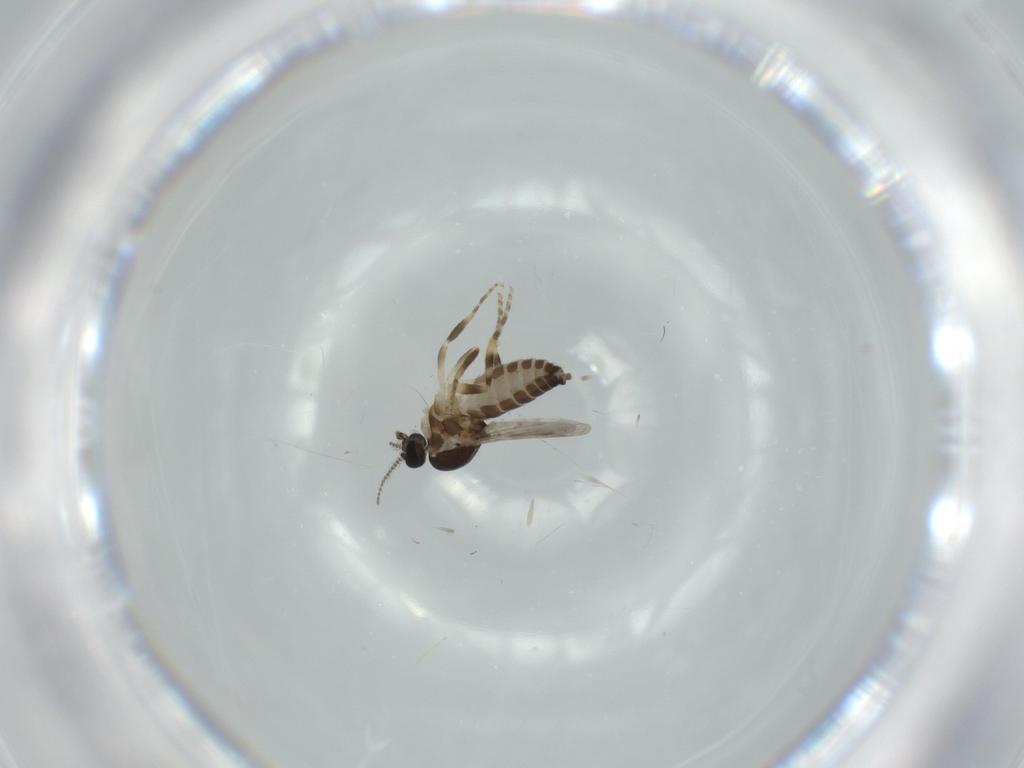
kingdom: Animalia
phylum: Arthropoda
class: Insecta
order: Diptera
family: Ceratopogonidae
